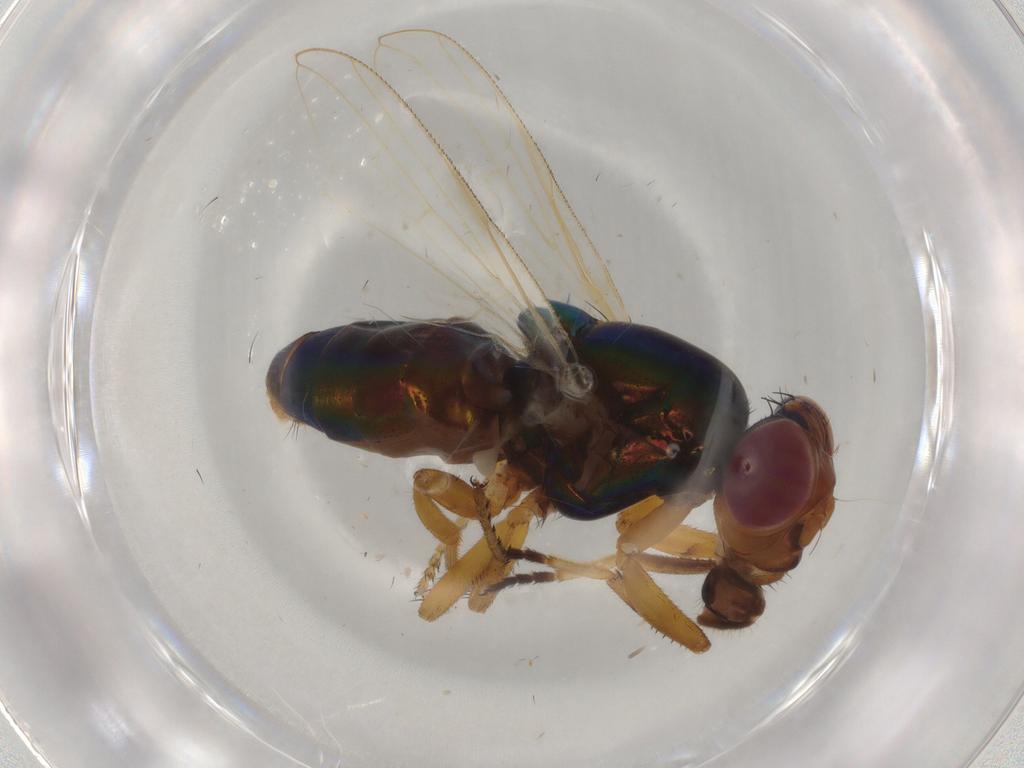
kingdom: Animalia
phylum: Arthropoda
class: Insecta
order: Diptera
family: Ulidiidae
